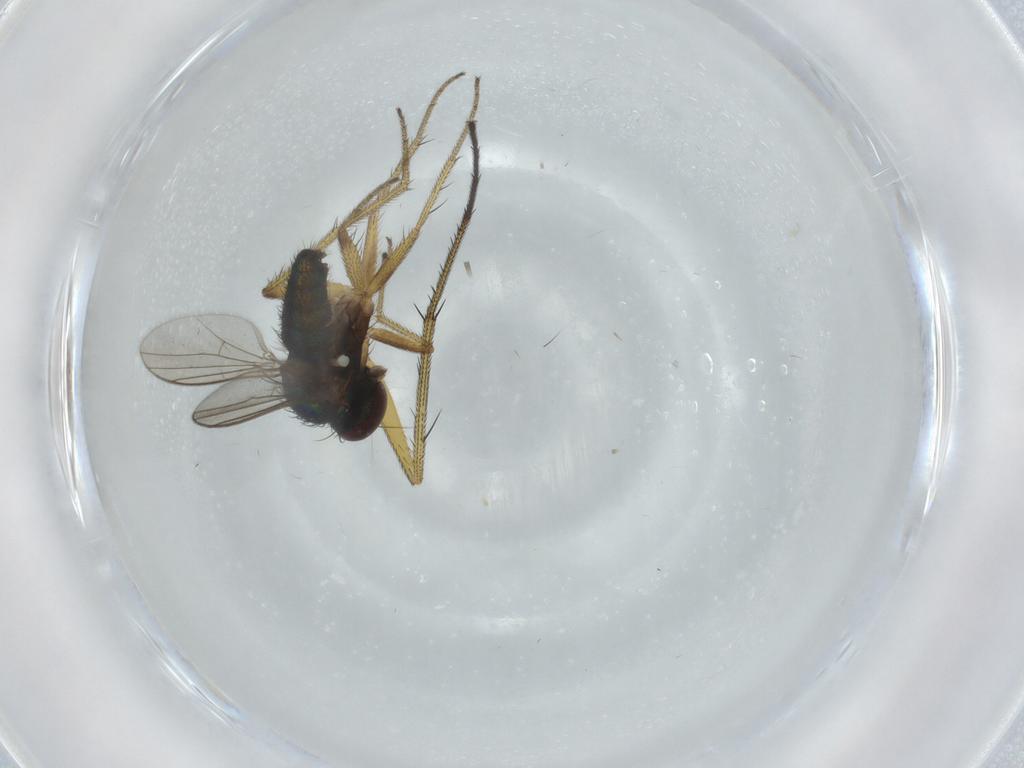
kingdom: Animalia
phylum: Arthropoda
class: Insecta
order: Diptera
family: Dolichopodidae
